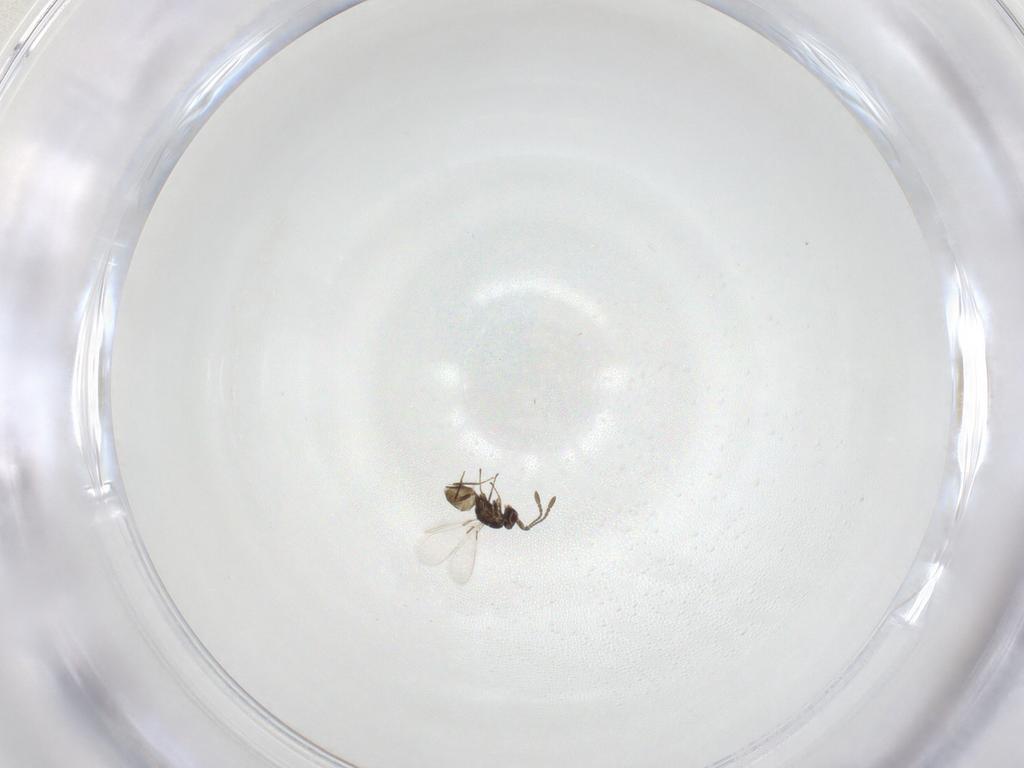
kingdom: Animalia
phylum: Arthropoda
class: Insecta
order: Hymenoptera
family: Mymaridae
